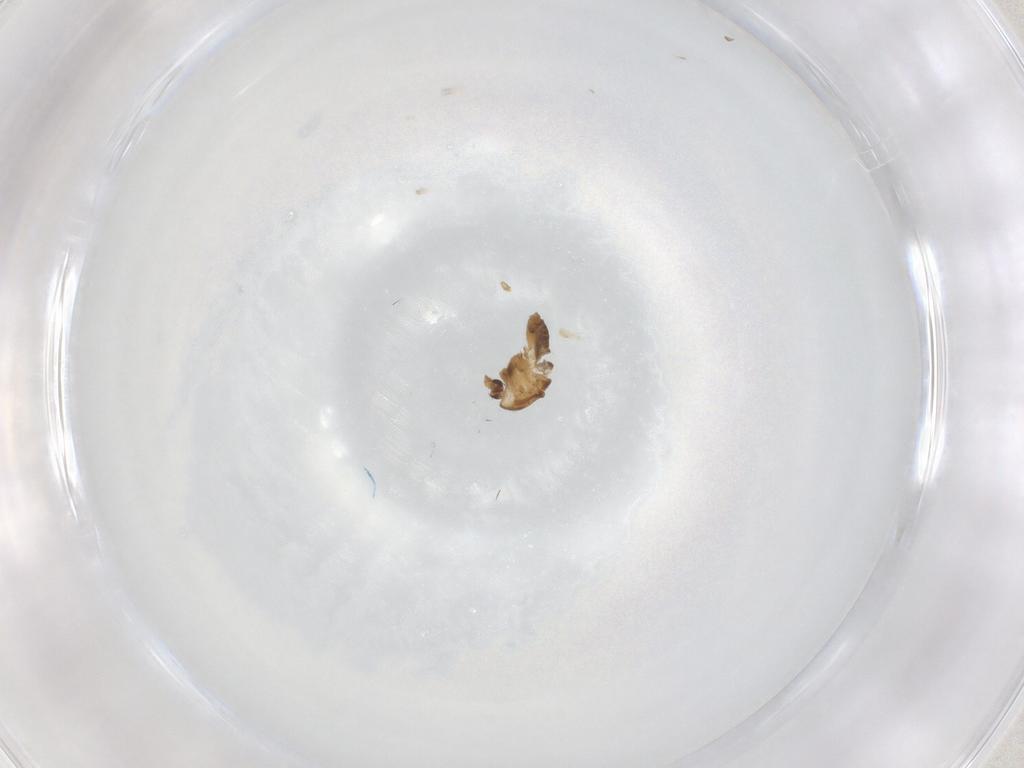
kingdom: Animalia
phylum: Arthropoda
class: Insecta
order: Diptera
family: Chironomidae
